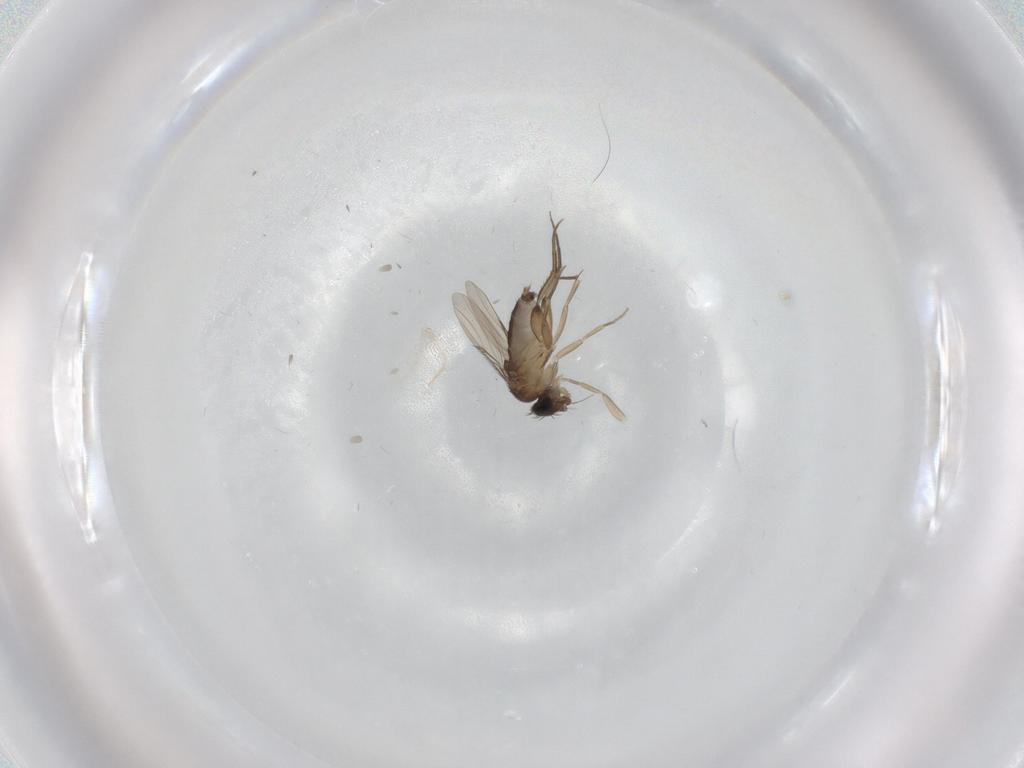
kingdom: Animalia
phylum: Arthropoda
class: Insecta
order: Diptera
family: Phoridae
